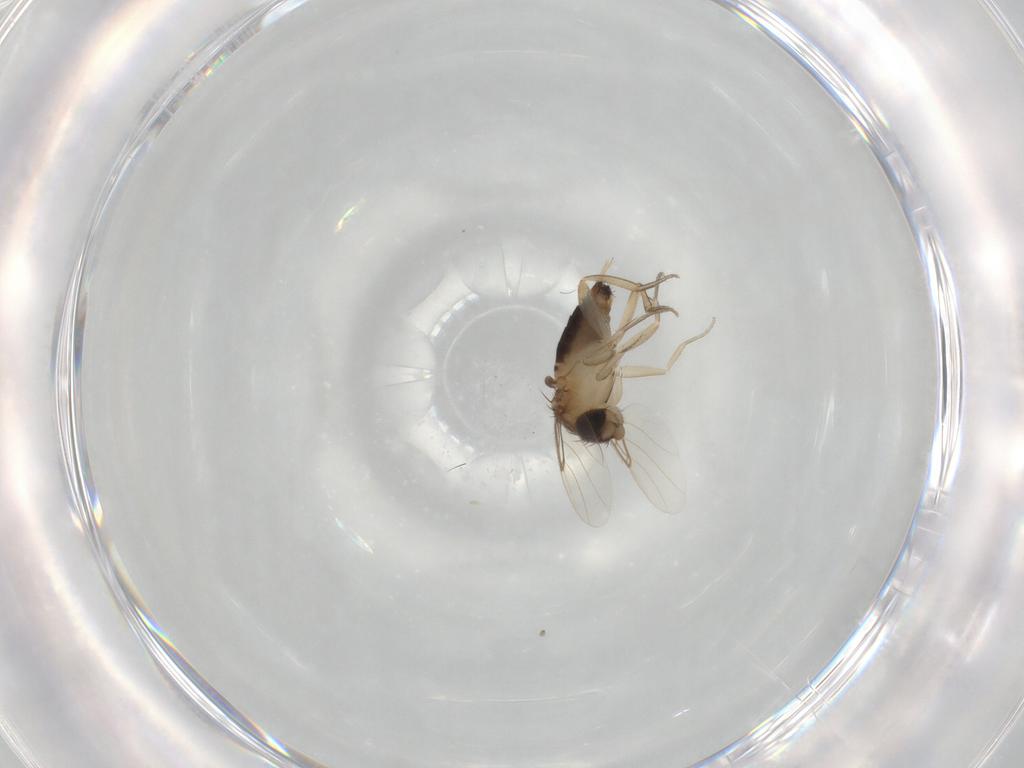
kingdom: Animalia
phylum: Arthropoda
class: Insecta
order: Diptera
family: Phoridae
